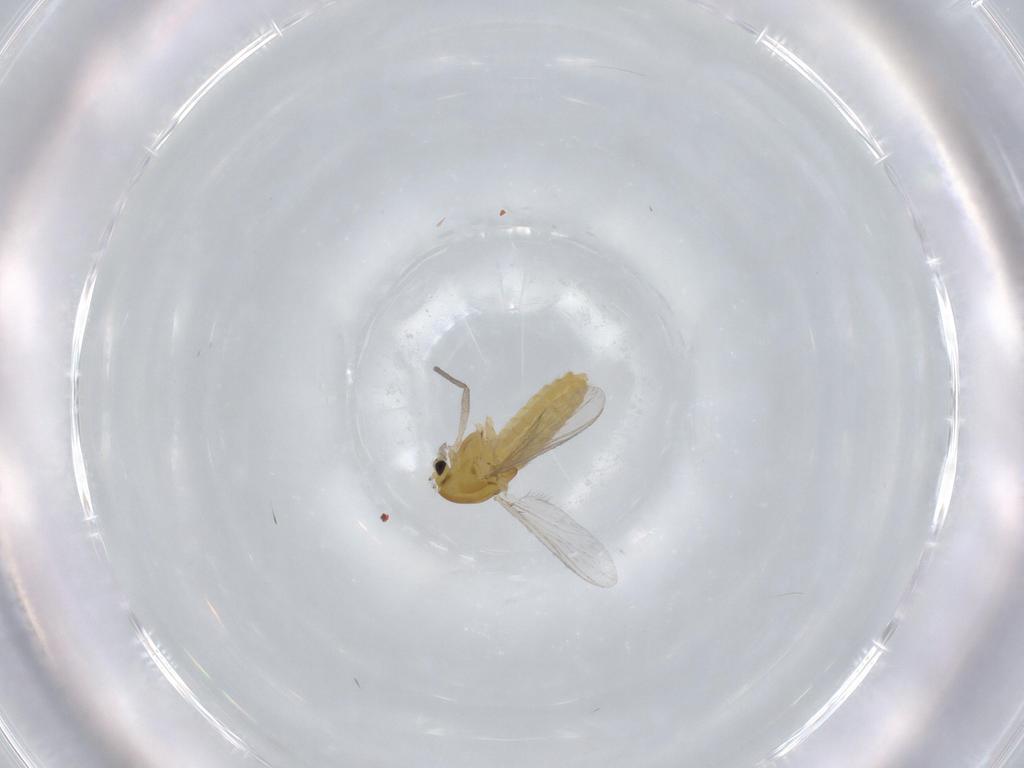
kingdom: Animalia
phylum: Arthropoda
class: Insecta
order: Diptera
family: Chironomidae
